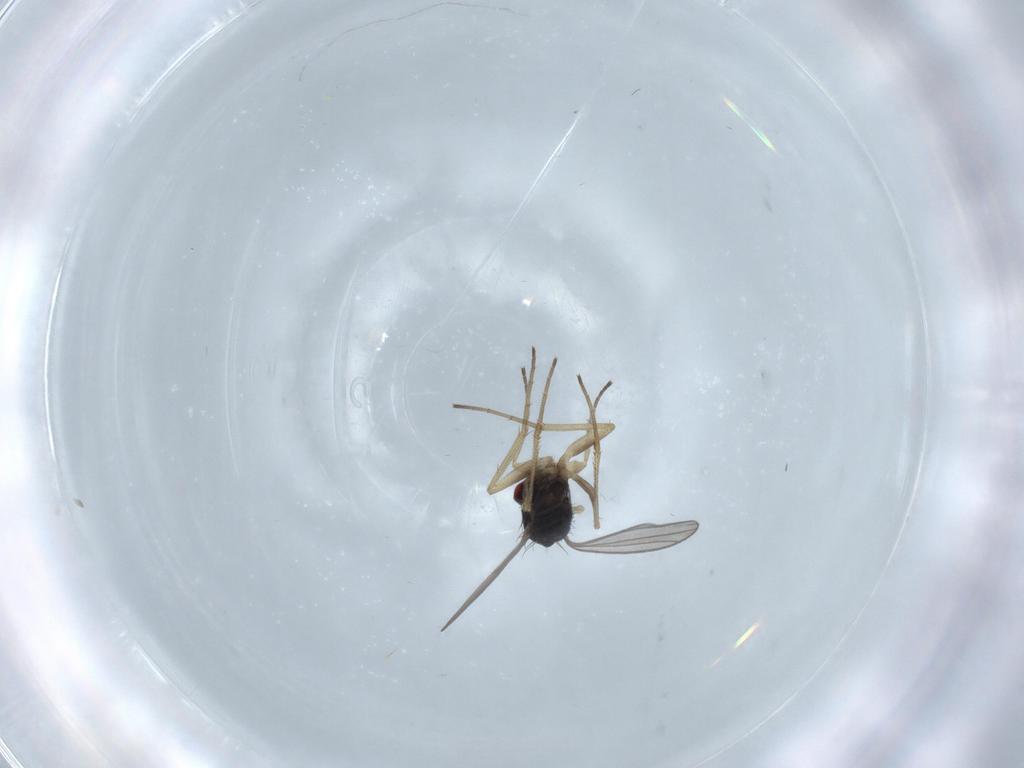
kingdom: Animalia
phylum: Arthropoda
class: Insecta
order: Diptera
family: Dolichopodidae
